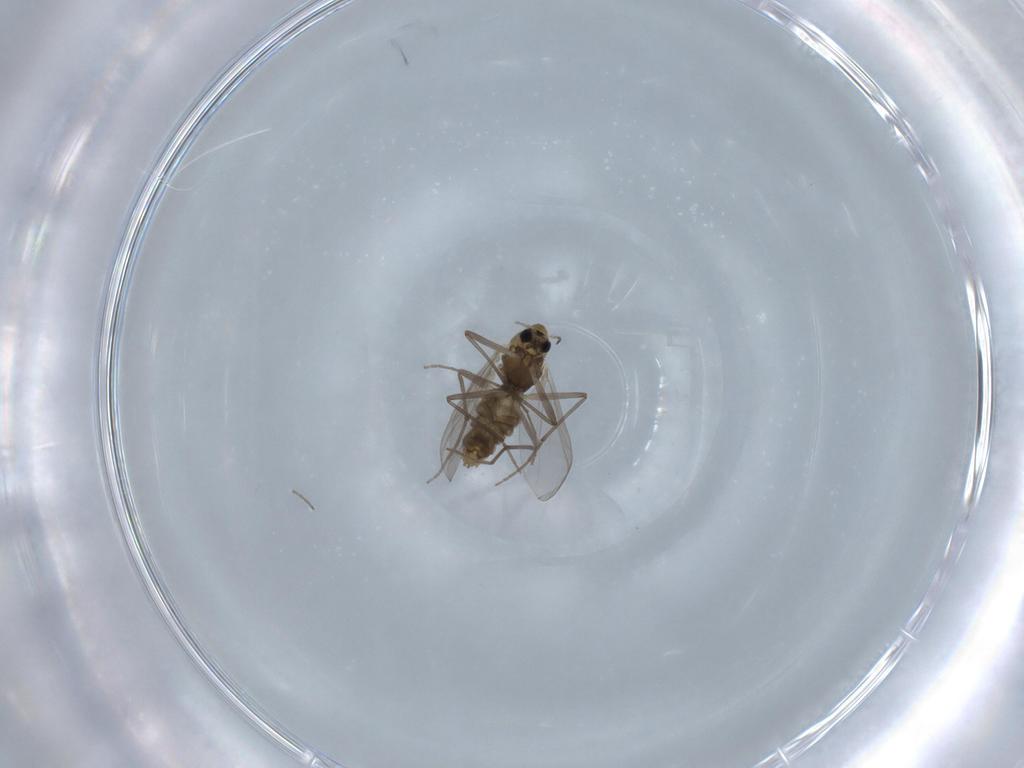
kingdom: Animalia
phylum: Arthropoda
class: Insecta
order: Diptera
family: Chironomidae
